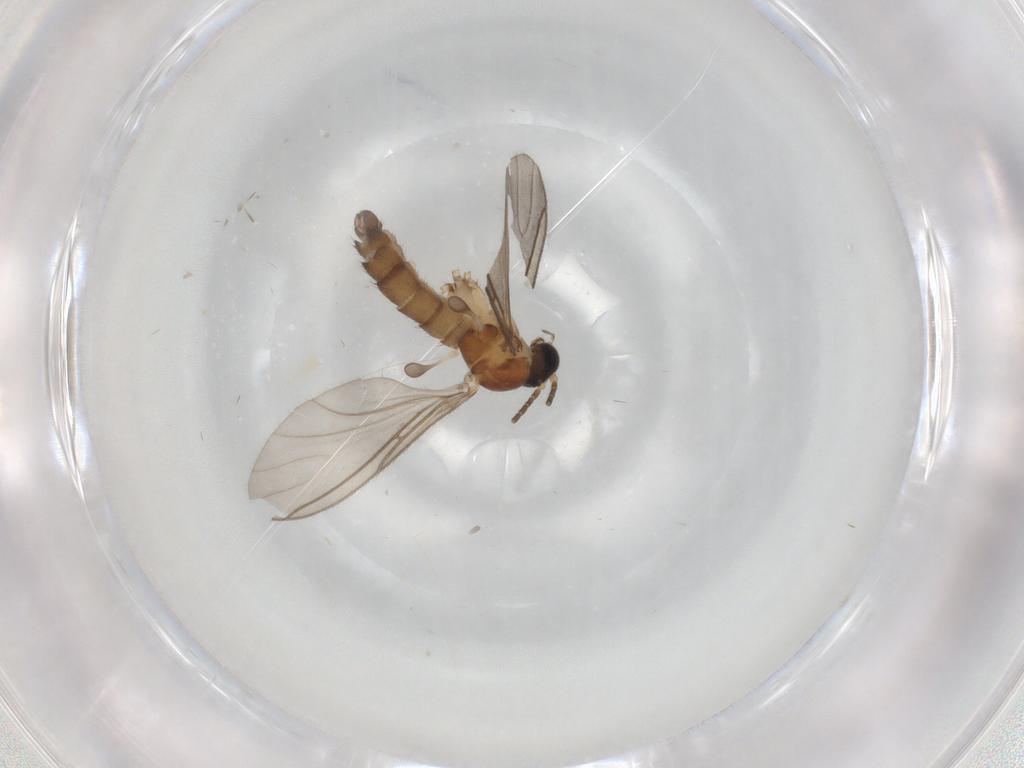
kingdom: Animalia
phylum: Arthropoda
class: Insecta
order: Diptera
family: Sciaridae
